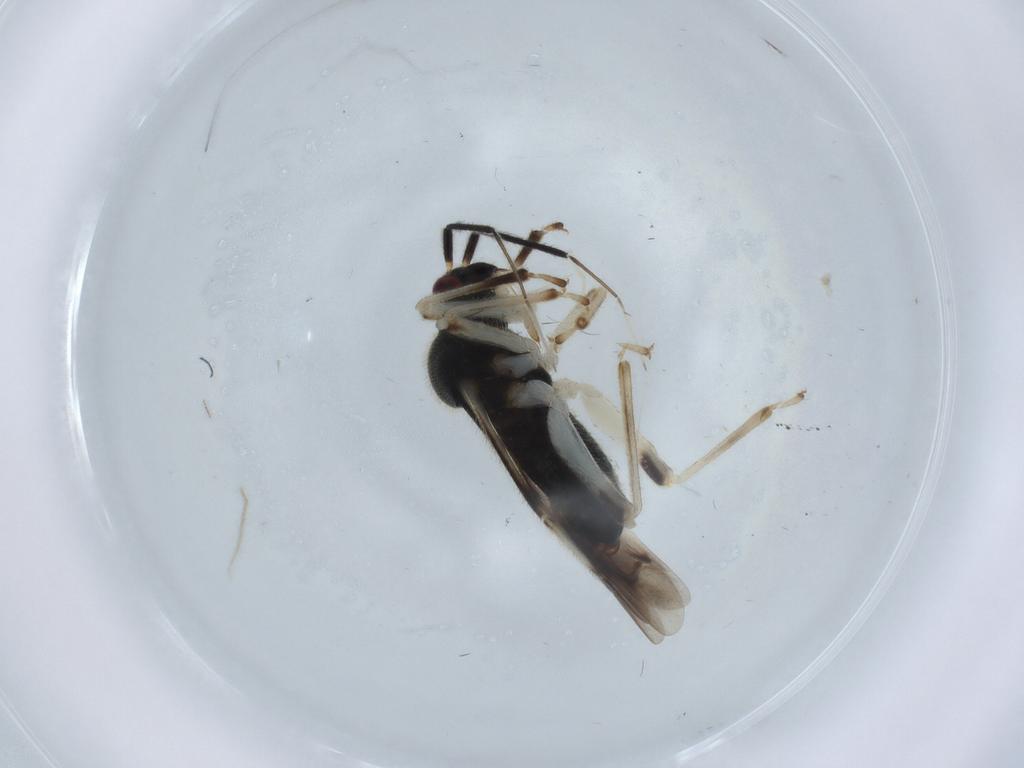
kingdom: Animalia
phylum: Arthropoda
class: Insecta
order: Hemiptera
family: Miridae
